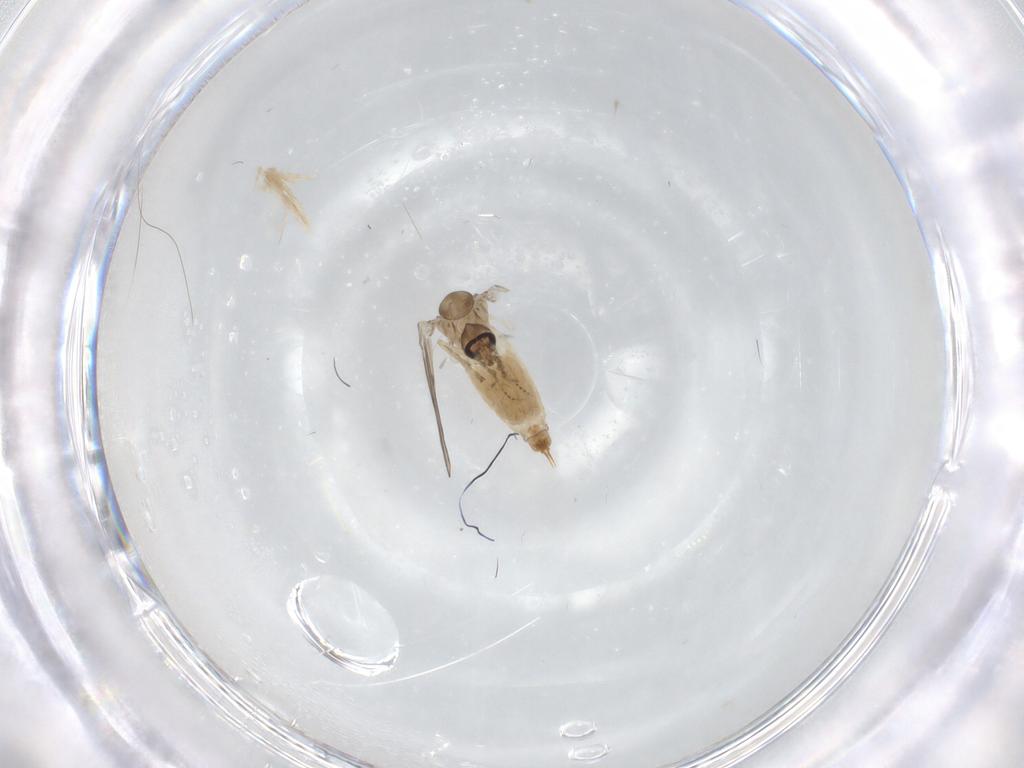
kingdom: Animalia
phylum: Arthropoda
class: Insecta
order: Diptera
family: Psychodidae
